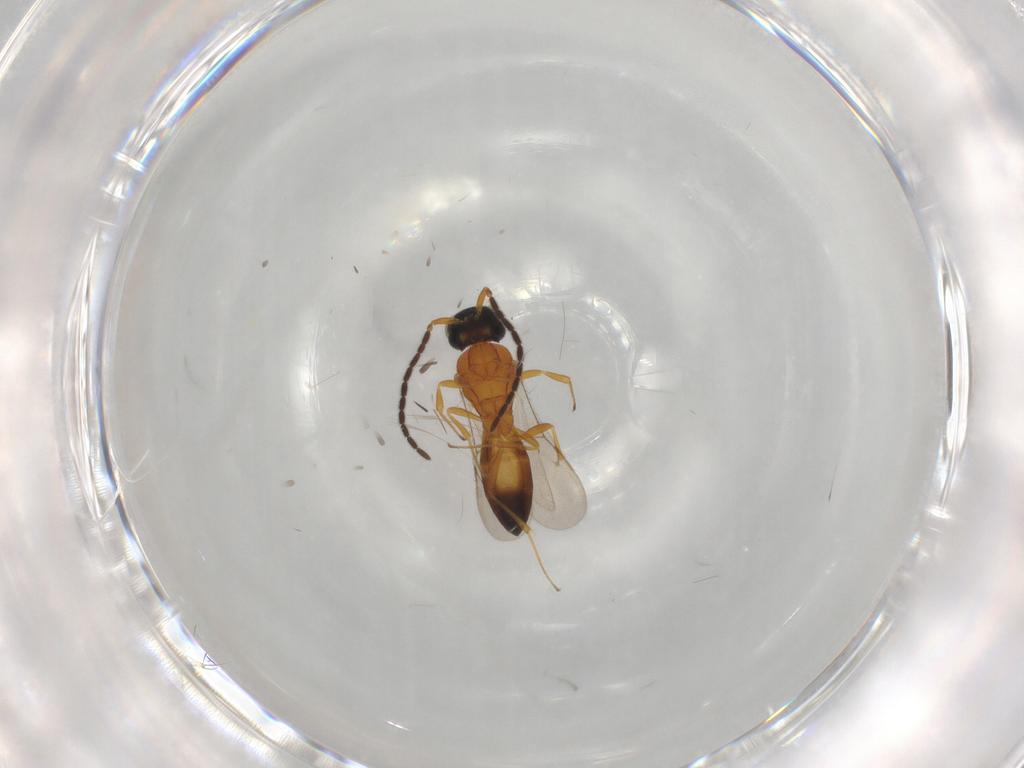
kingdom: Animalia
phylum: Arthropoda
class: Insecta
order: Hymenoptera
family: Scelionidae
